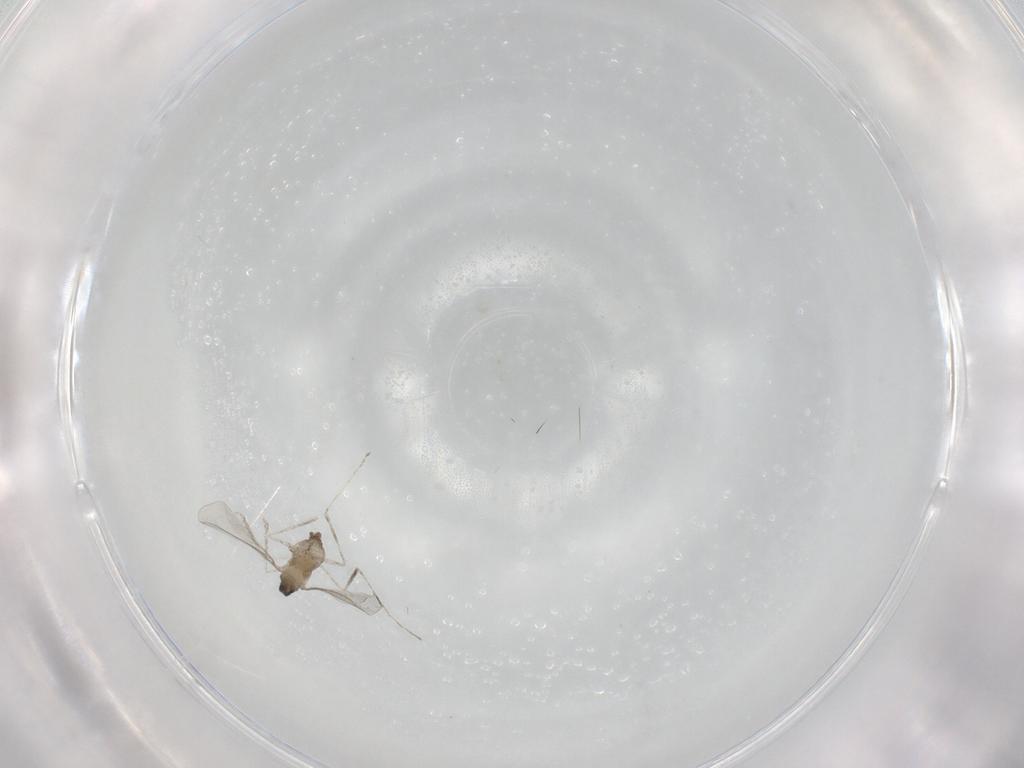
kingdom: Animalia
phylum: Arthropoda
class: Insecta
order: Diptera
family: Cecidomyiidae
